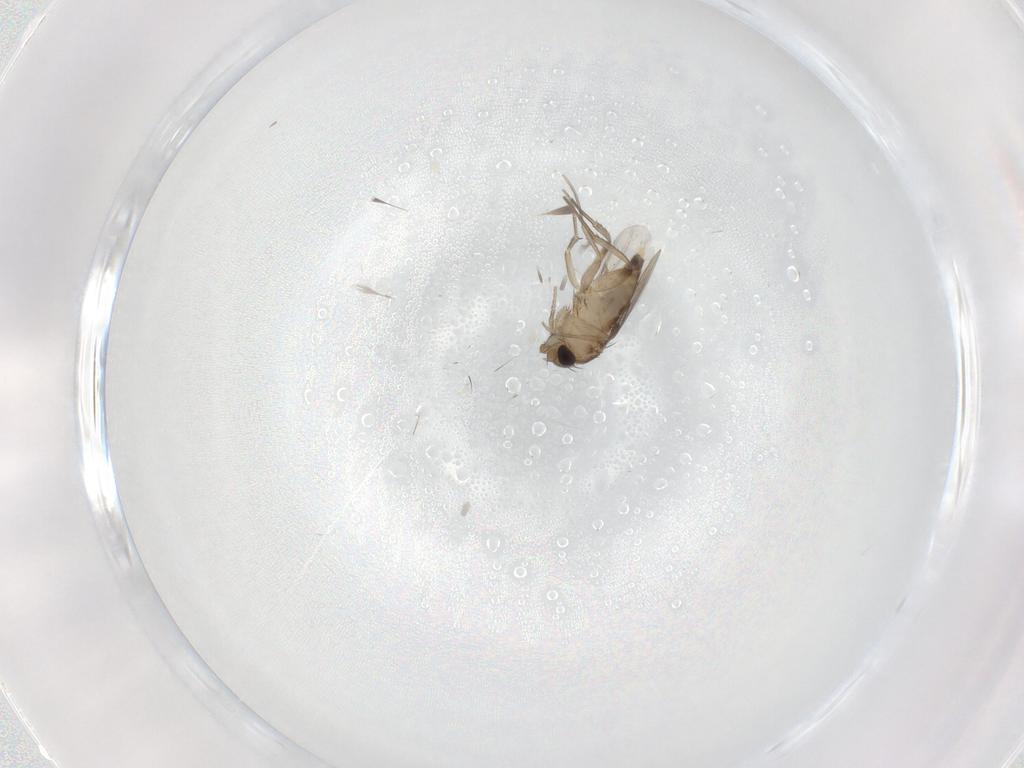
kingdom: Animalia
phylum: Arthropoda
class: Insecta
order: Diptera
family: Phoridae
